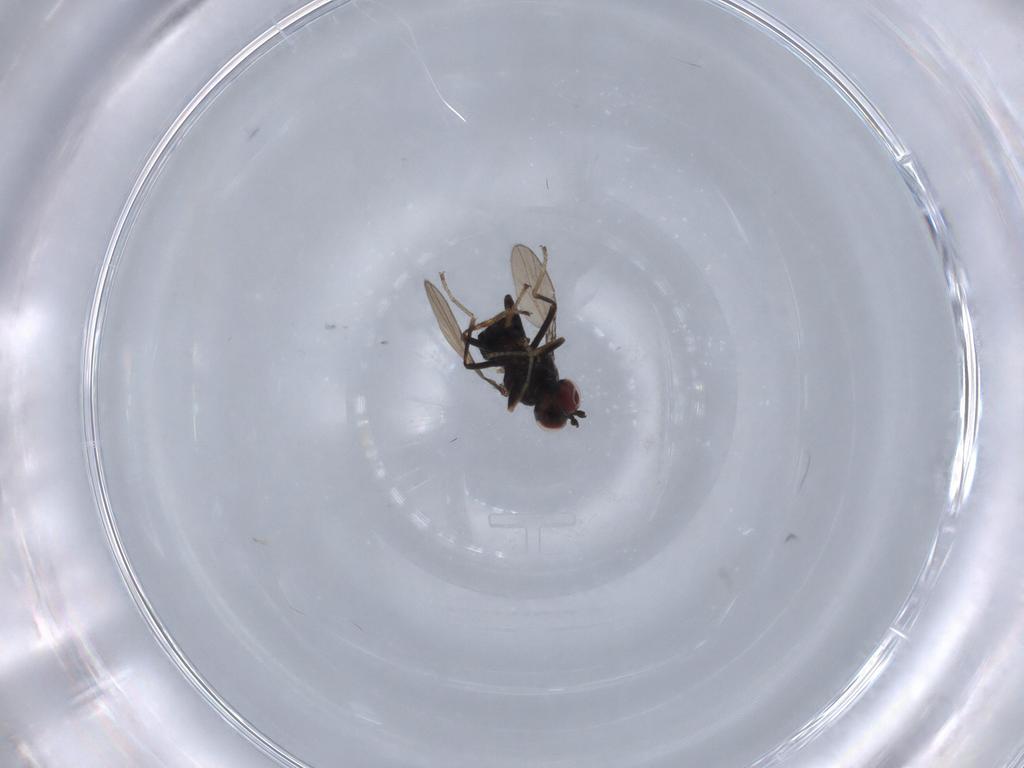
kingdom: Animalia
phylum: Arthropoda
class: Insecta
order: Diptera
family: Ephydridae
